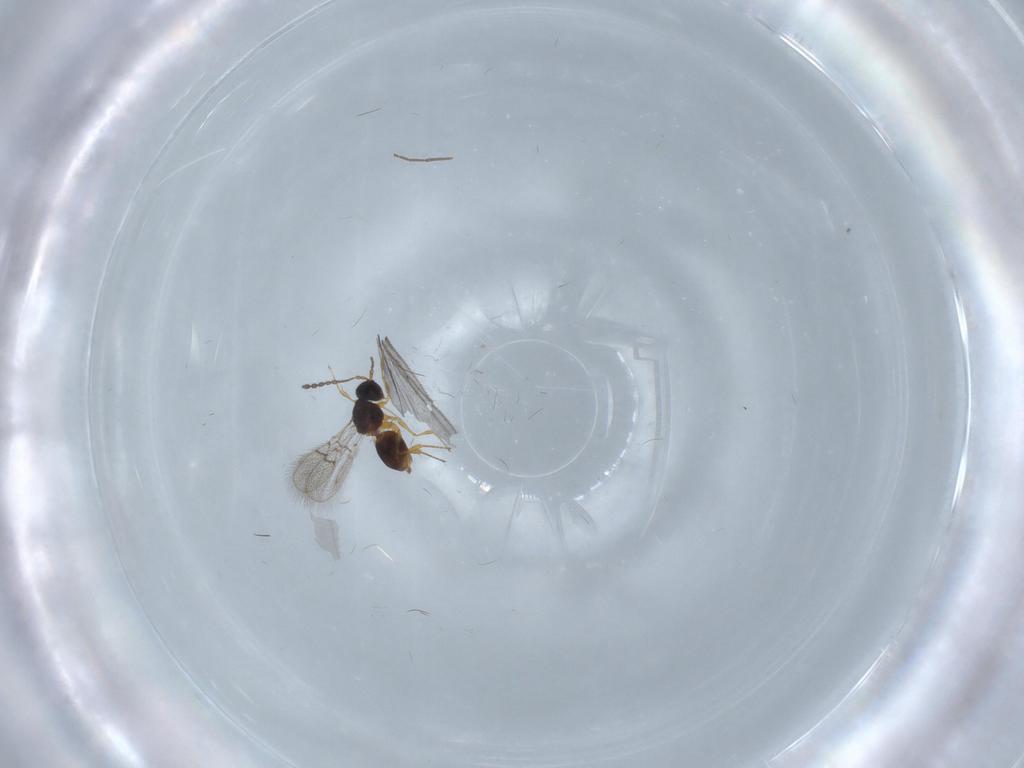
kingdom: Animalia
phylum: Arthropoda
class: Insecta
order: Hymenoptera
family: Figitidae
